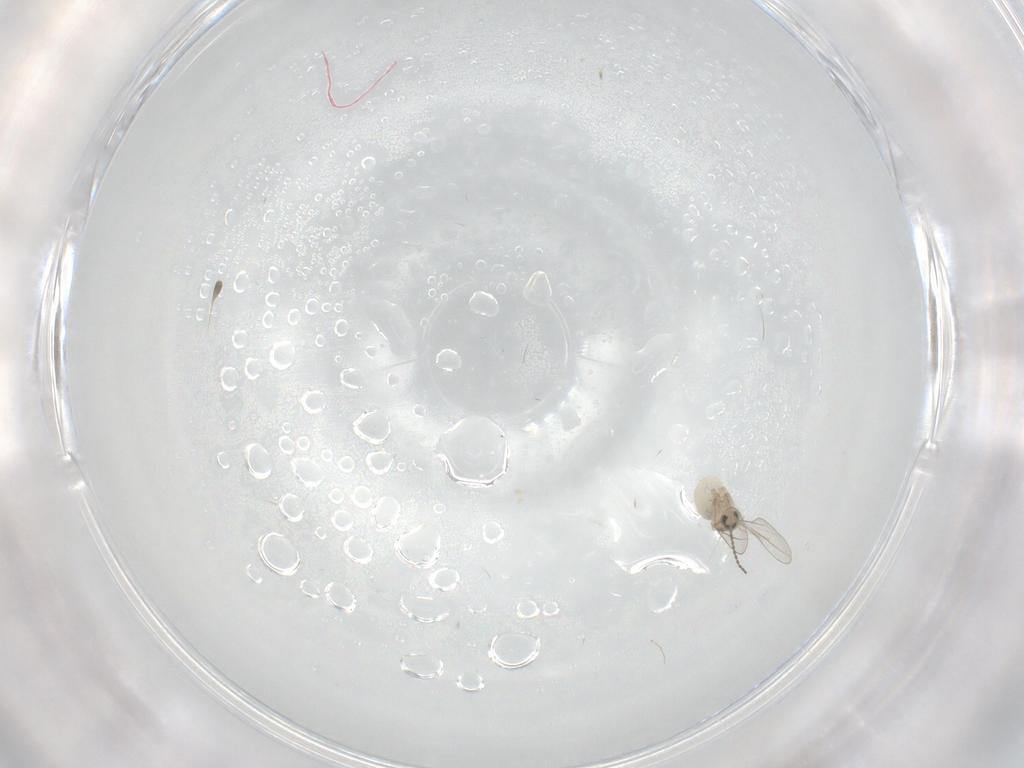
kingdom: Animalia
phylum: Arthropoda
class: Insecta
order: Diptera
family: Cecidomyiidae
